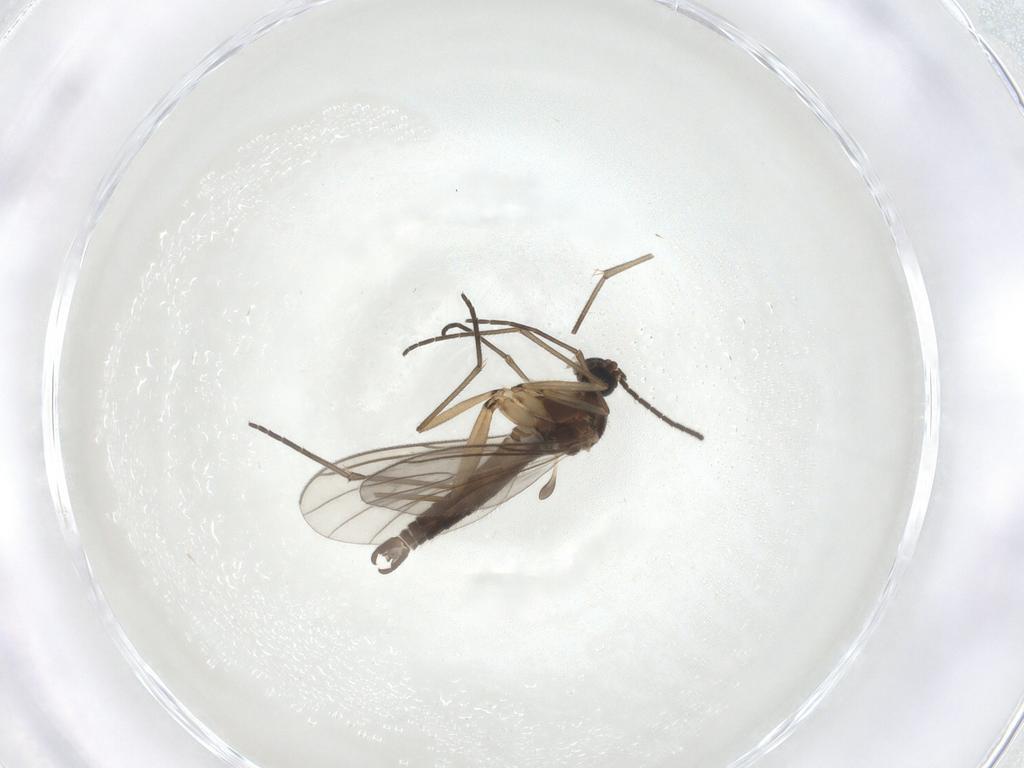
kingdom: Animalia
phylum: Arthropoda
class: Insecta
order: Diptera
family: Sciaridae
